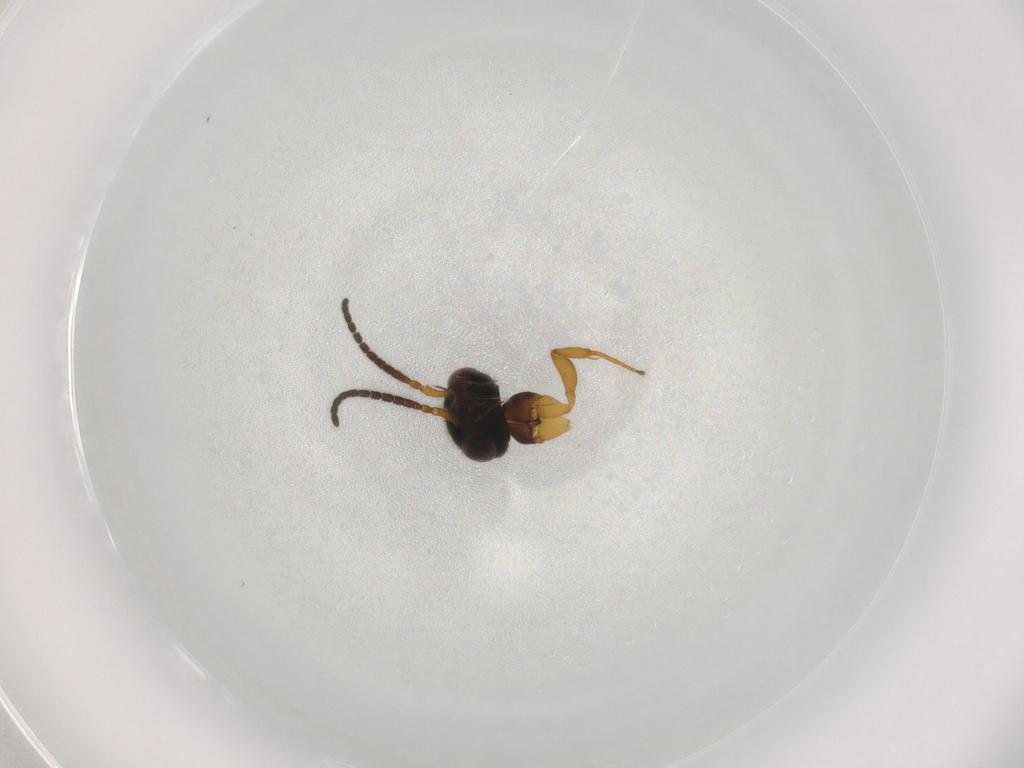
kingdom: Animalia
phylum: Arthropoda
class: Insecta
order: Hymenoptera
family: Bethylidae
